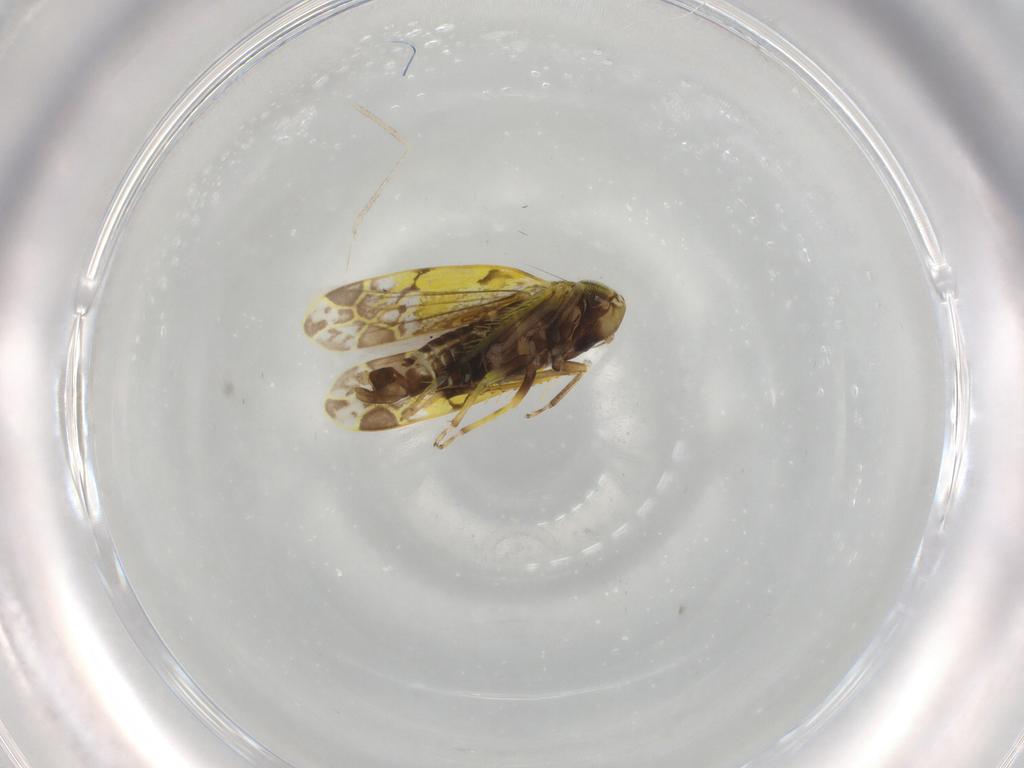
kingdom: Animalia
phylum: Arthropoda
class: Insecta
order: Hemiptera
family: Cicadellidae
